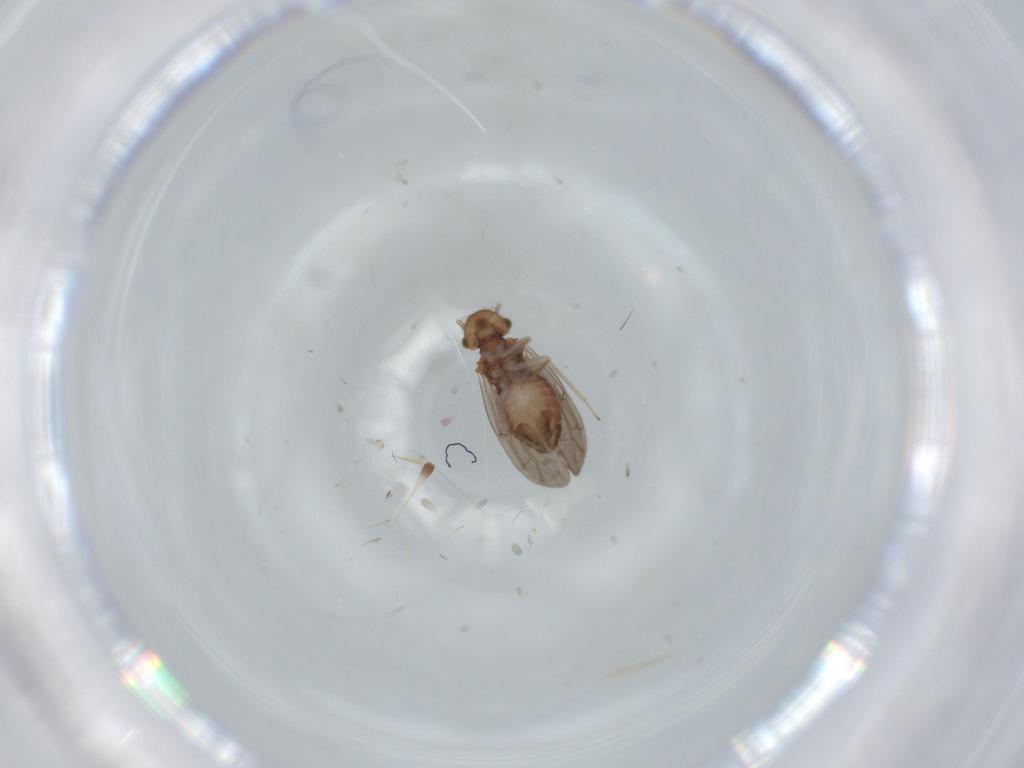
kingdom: Animalia
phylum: Arthropoda
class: Insecta
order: Psocodea
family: Ectopsocidae
